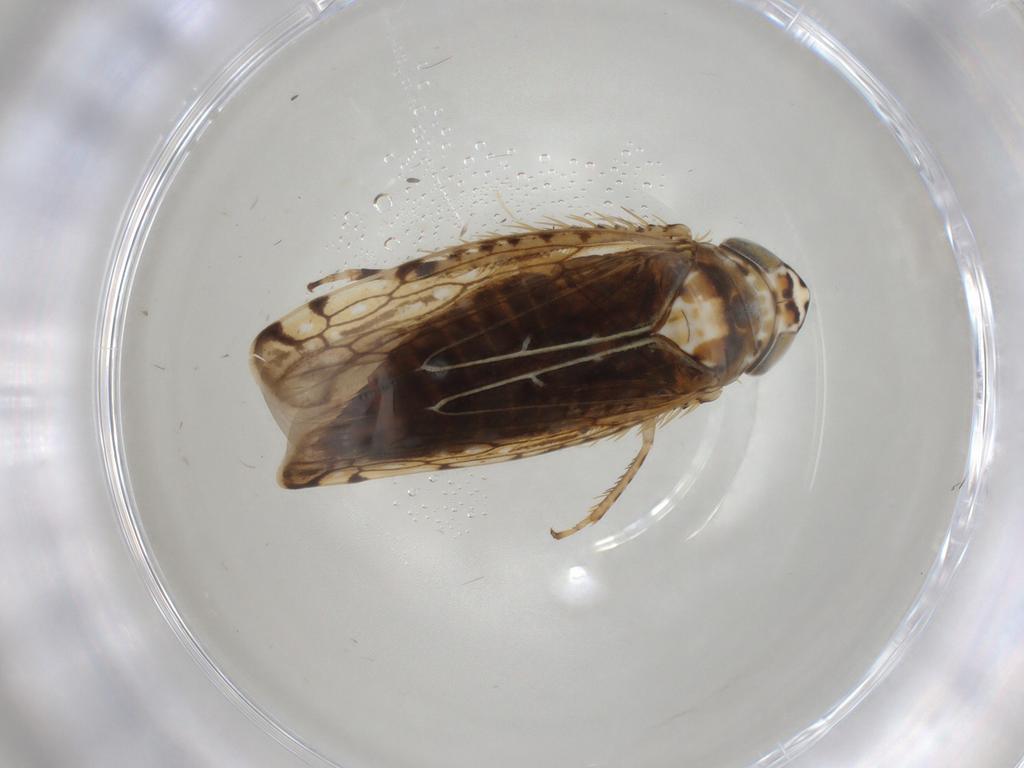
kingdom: Animalia
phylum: Arthropoda
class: Insecta
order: Hemiptera
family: Cicadellidae
